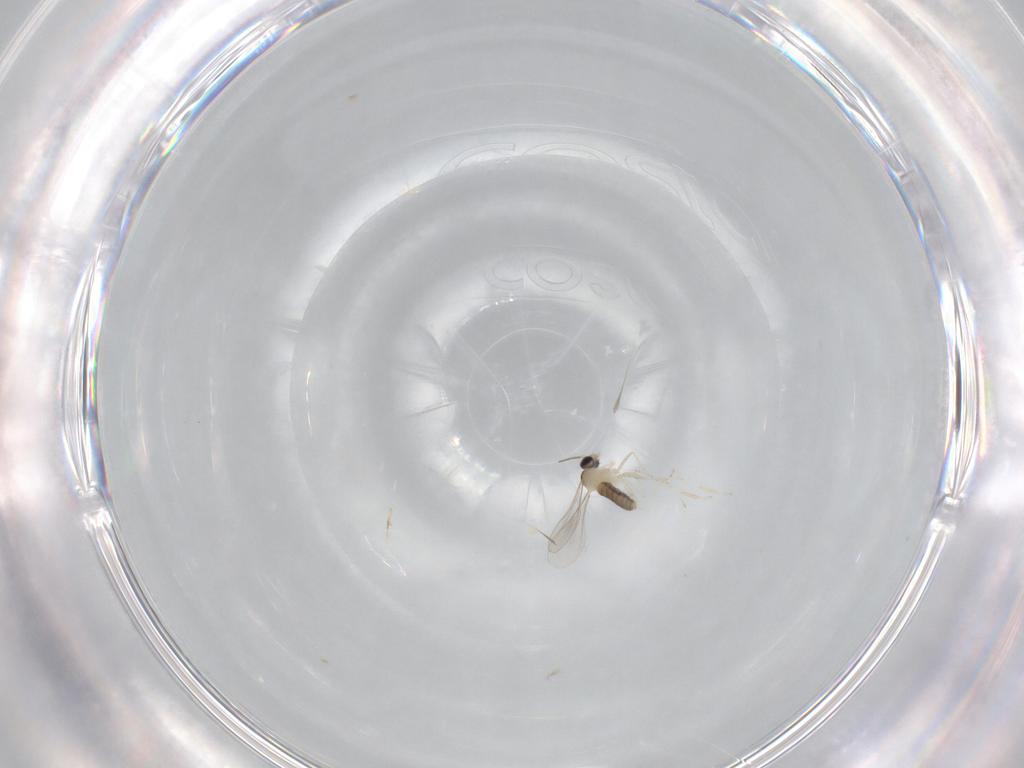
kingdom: Animalia
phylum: Arthropoda
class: Insecta
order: Diptera
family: Cecidomyiidae
